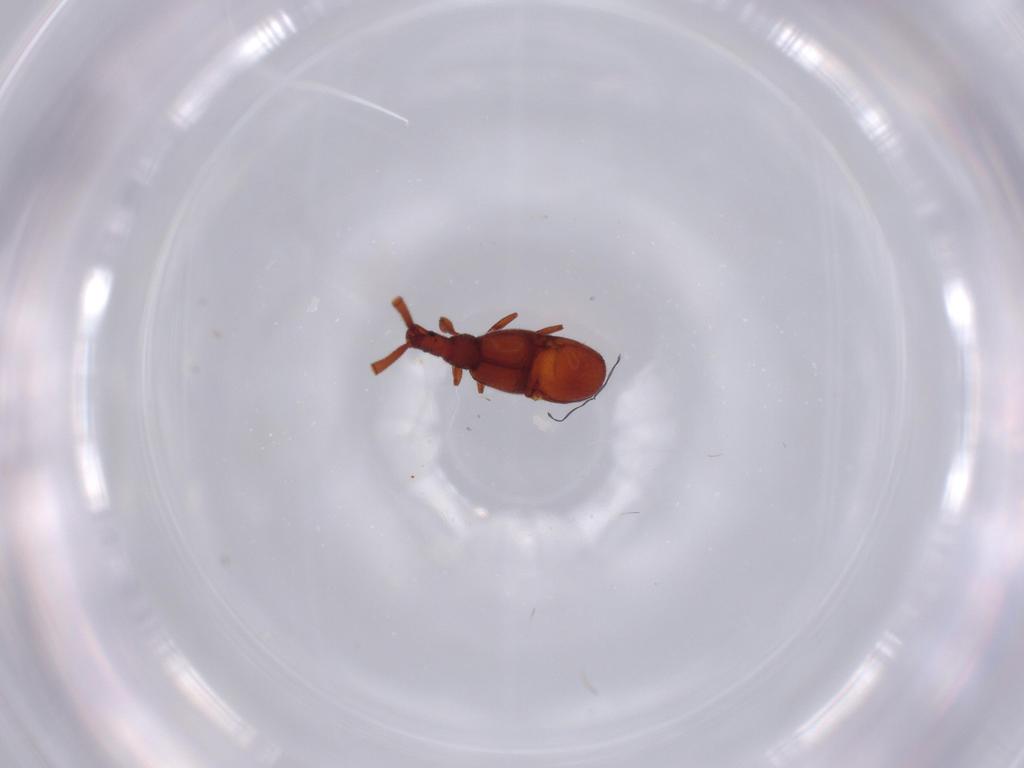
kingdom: Animalia
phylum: Arthropoda
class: Insecta
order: Coleoptera
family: Staphylinidae
